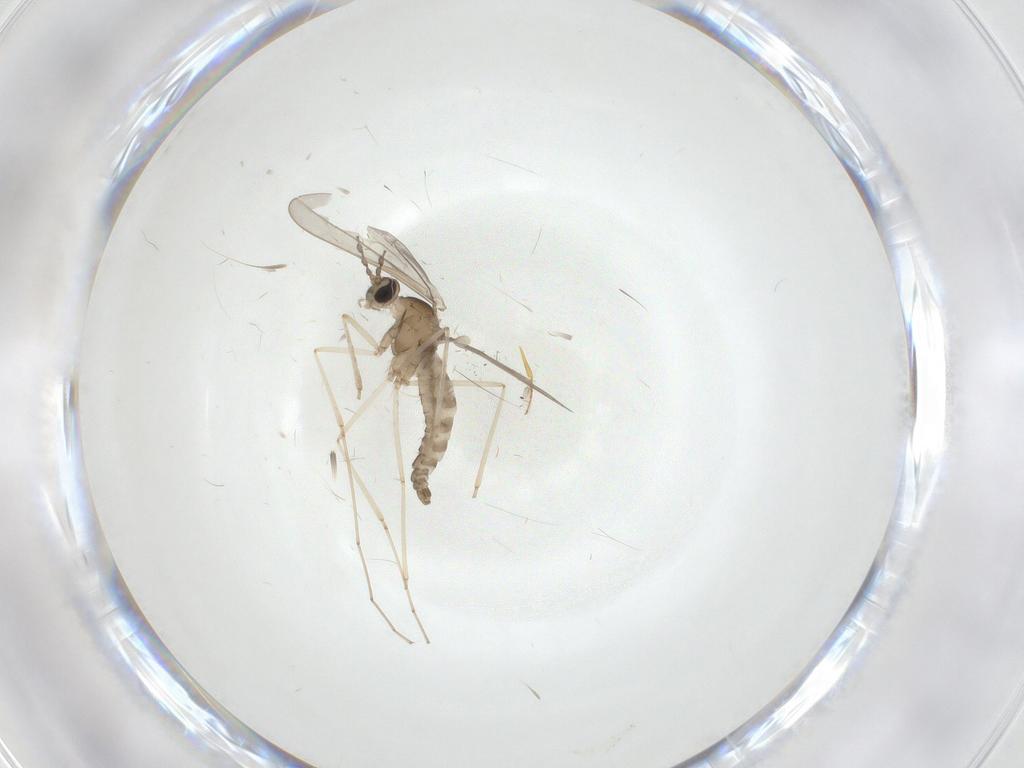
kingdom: Animalia
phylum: Arthropoda
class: Insecta
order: Diptera
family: Cecidomyiidae
